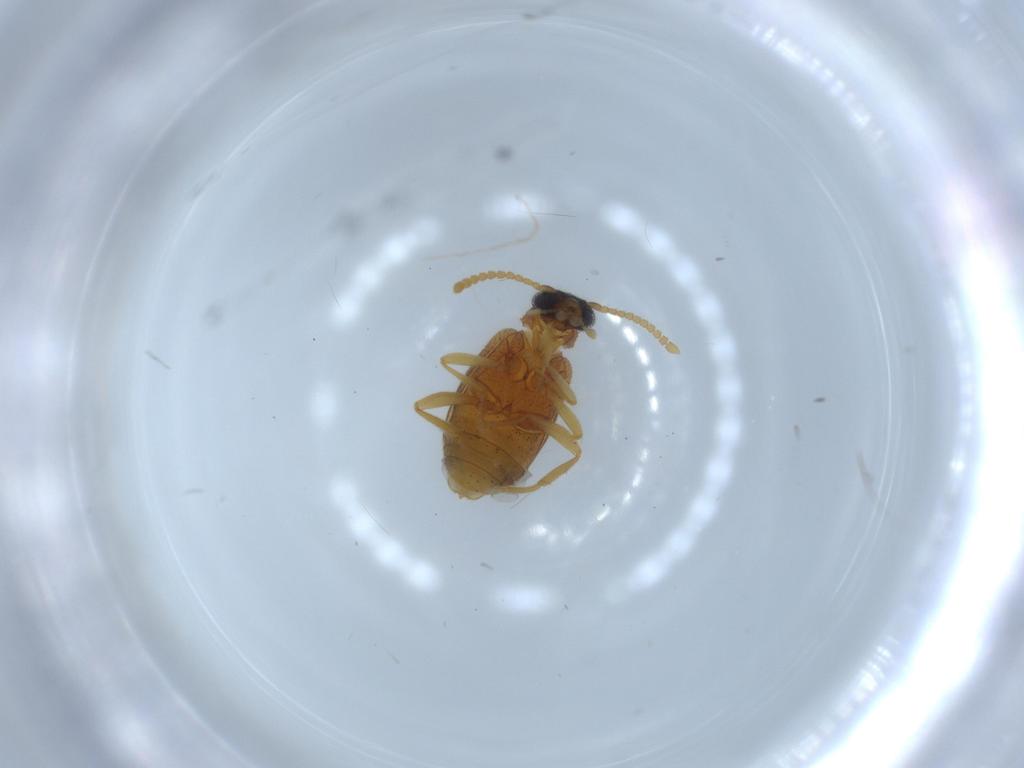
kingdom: Animalia
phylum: Arthropoda
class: Insecta
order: Coleoptera
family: Aderidae
